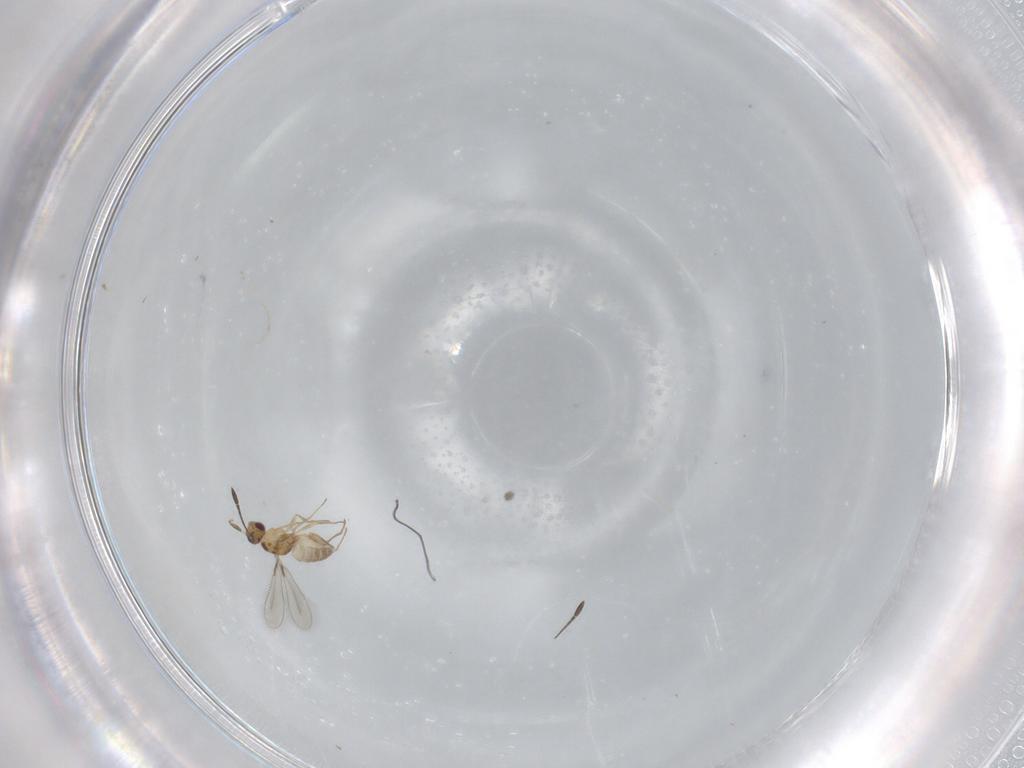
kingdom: Animalia
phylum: Arthropoda
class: Insecta
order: Hymenoptera
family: Mymaridae
